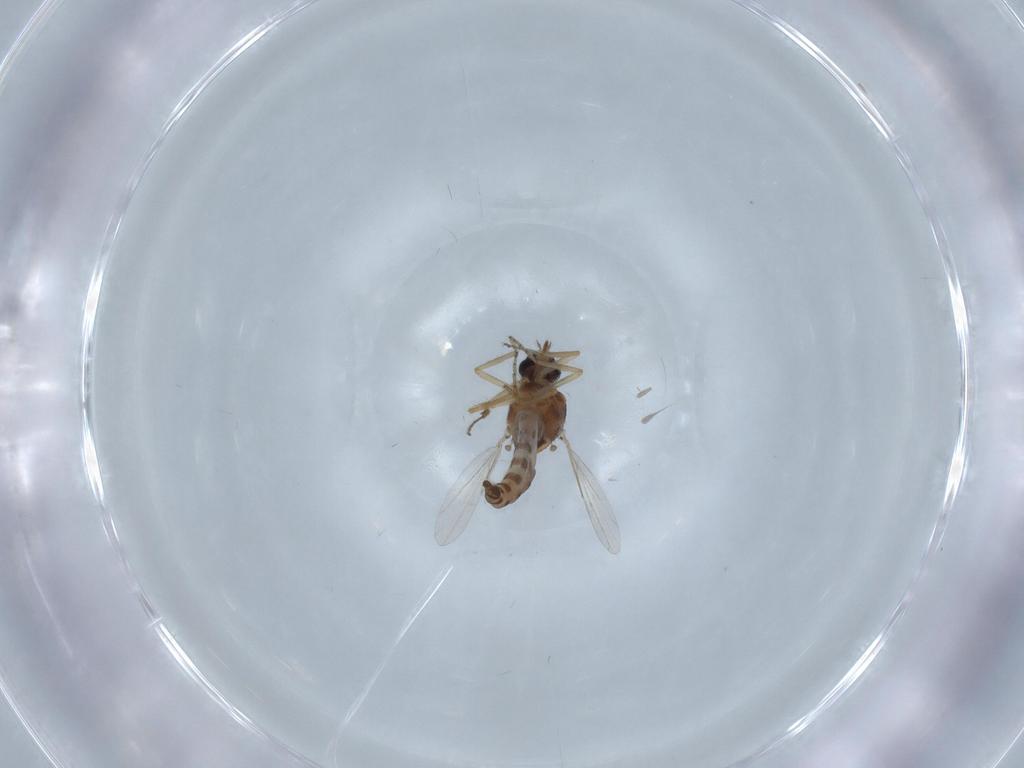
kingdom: Animalia
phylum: Arthropoda
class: Insecta
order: Diptera
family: Ceratopogonidae
